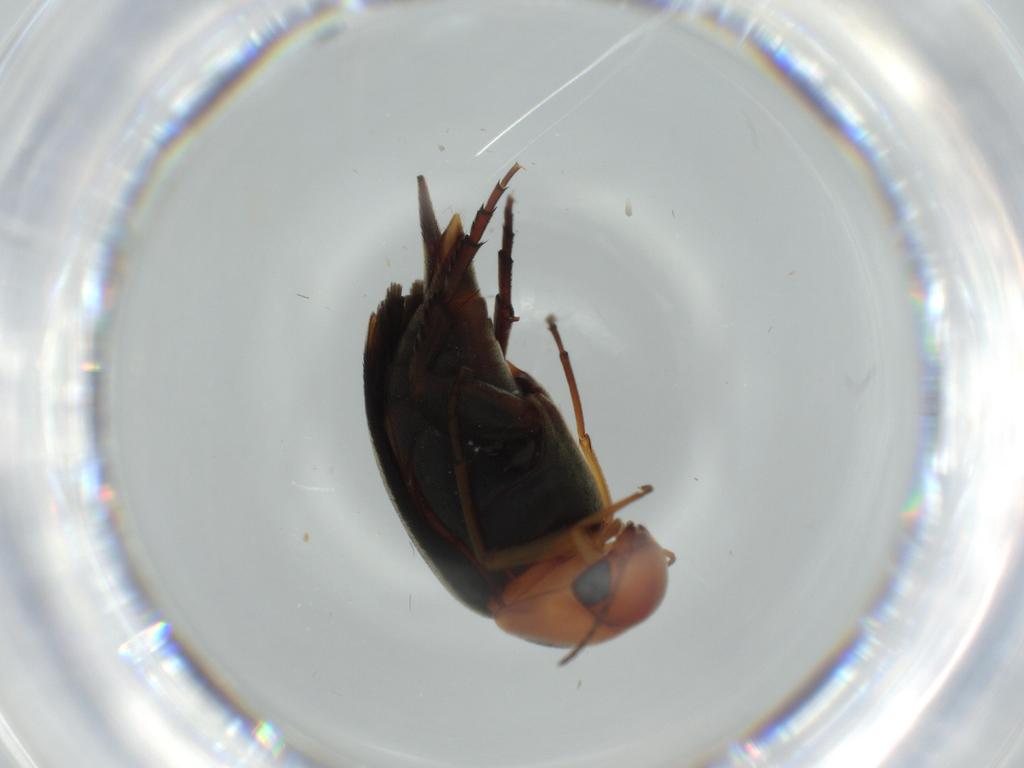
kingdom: Animalia
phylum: Arthropoda
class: Insecta
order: Coleoptera
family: Mordellidae
